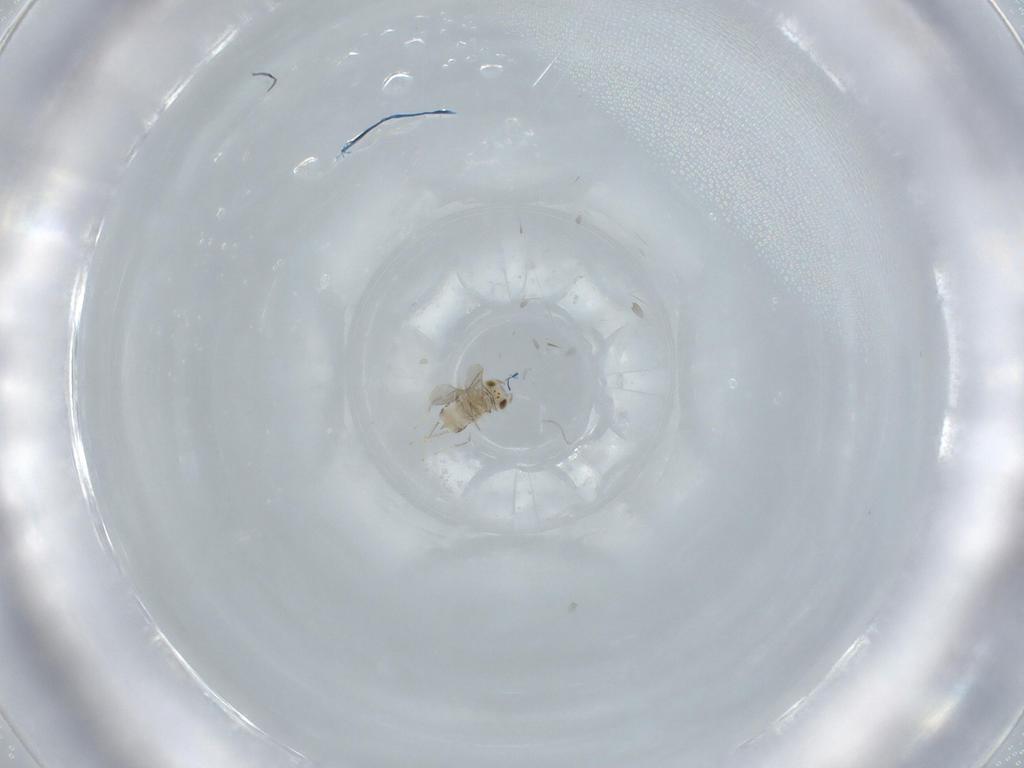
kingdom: Animalia
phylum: Arthropoda
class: Insecta
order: Hymenoptera
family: Aphelinidae
